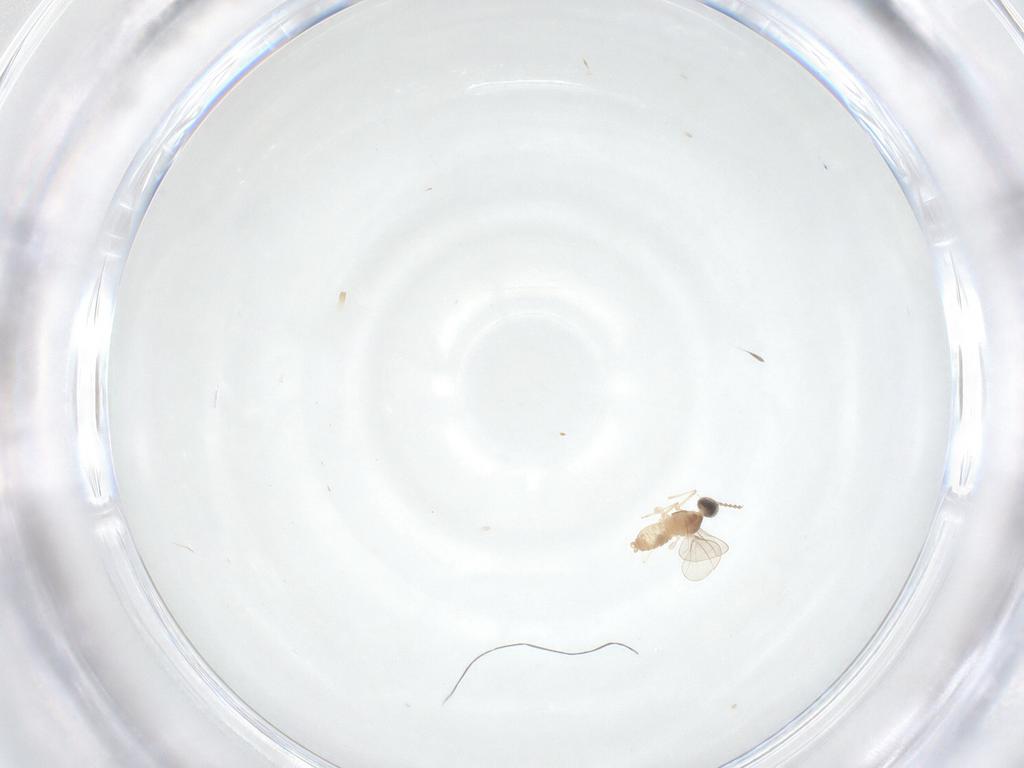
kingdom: Animalia
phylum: Arthropoda
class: Insecta
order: Diptera
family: Cecidomyiidae
